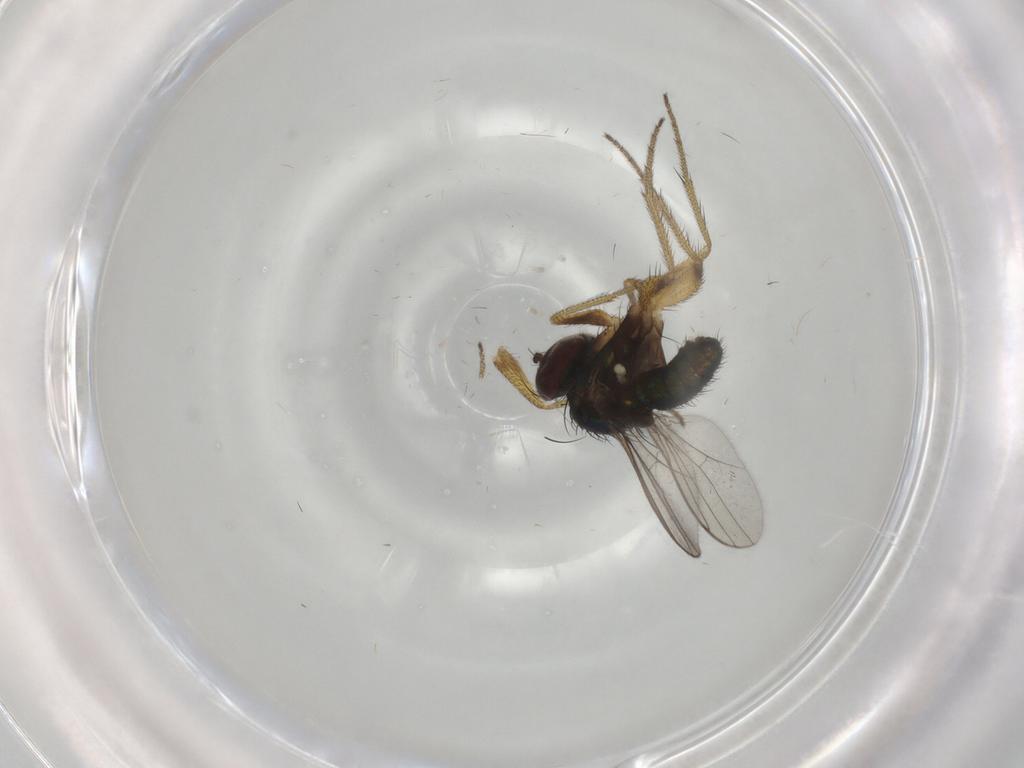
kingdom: Animalia
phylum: Arthropoda
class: Insecta
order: Diptera
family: Dolichopodidae
